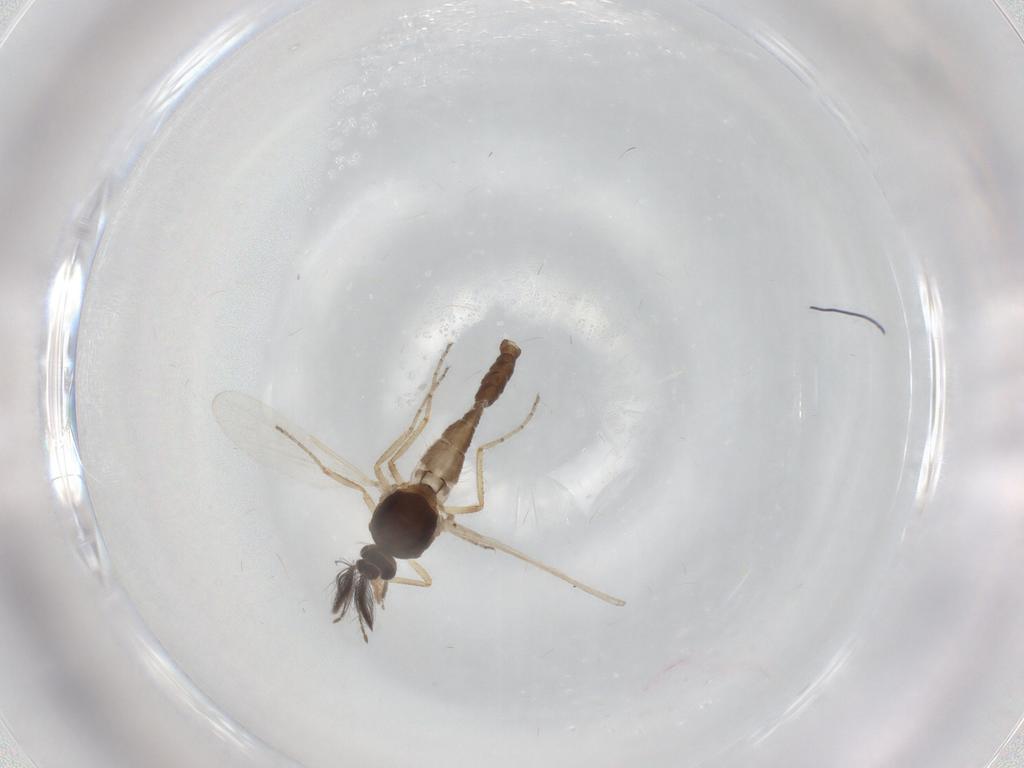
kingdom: Animalia
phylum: Arthropoda
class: Insecta
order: Diptera
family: Ceratopogonidae
